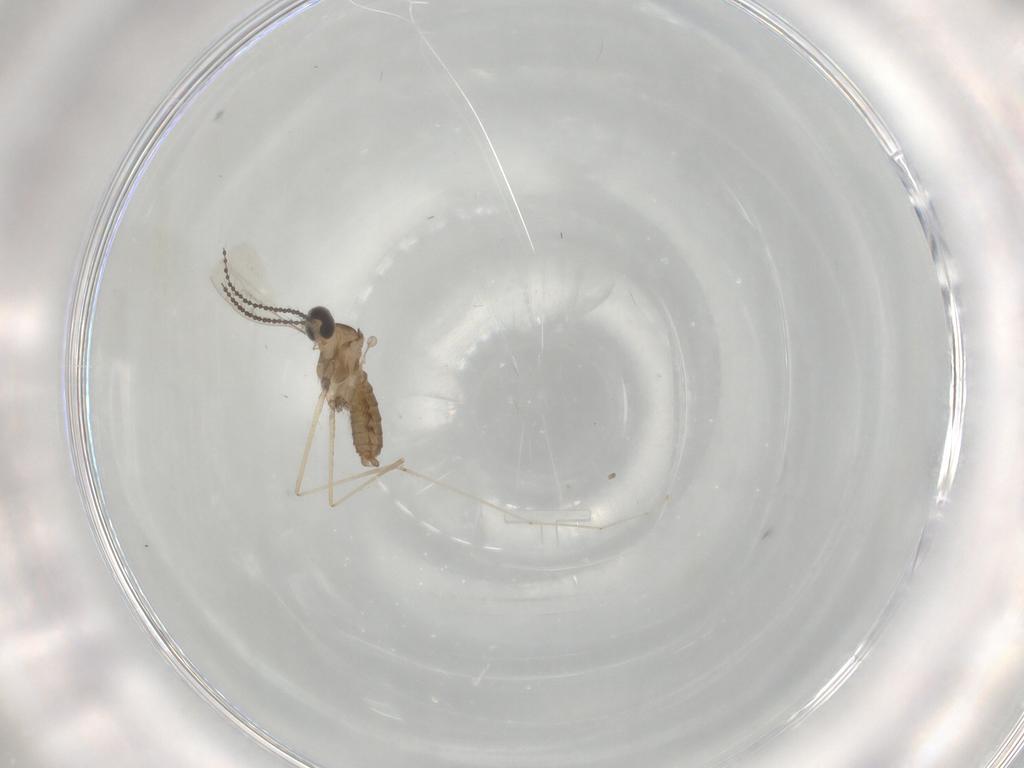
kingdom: Animalia
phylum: Arthropoda
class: Insecta
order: Diptera
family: Cecidomyiidae
